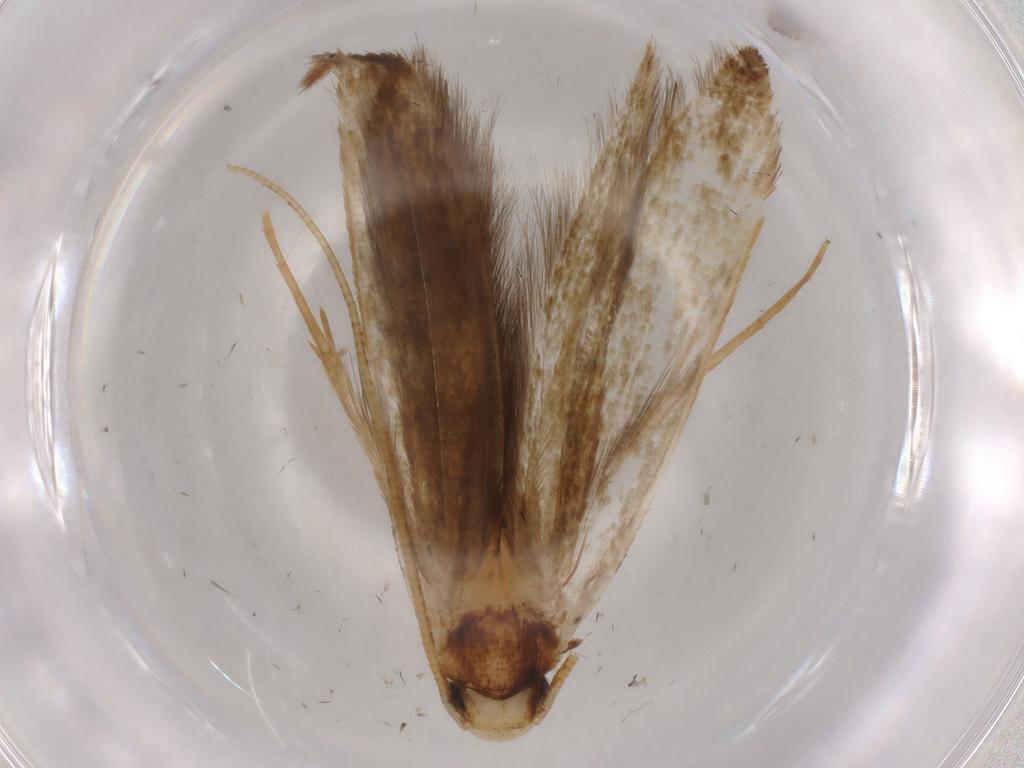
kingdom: Animalia
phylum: Arthropoda
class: Insecta
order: Lepidoptera
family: Tineidae
